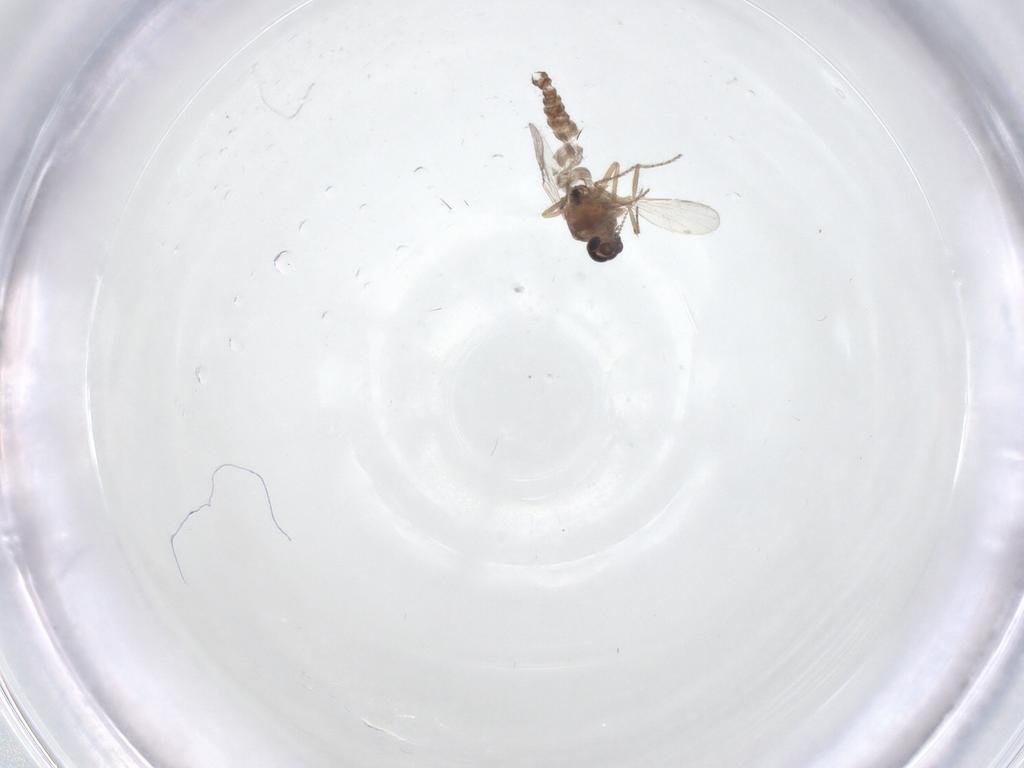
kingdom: Animalia
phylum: Arthropoda
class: Insecta
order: Diptera
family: Ceratopogonidae
